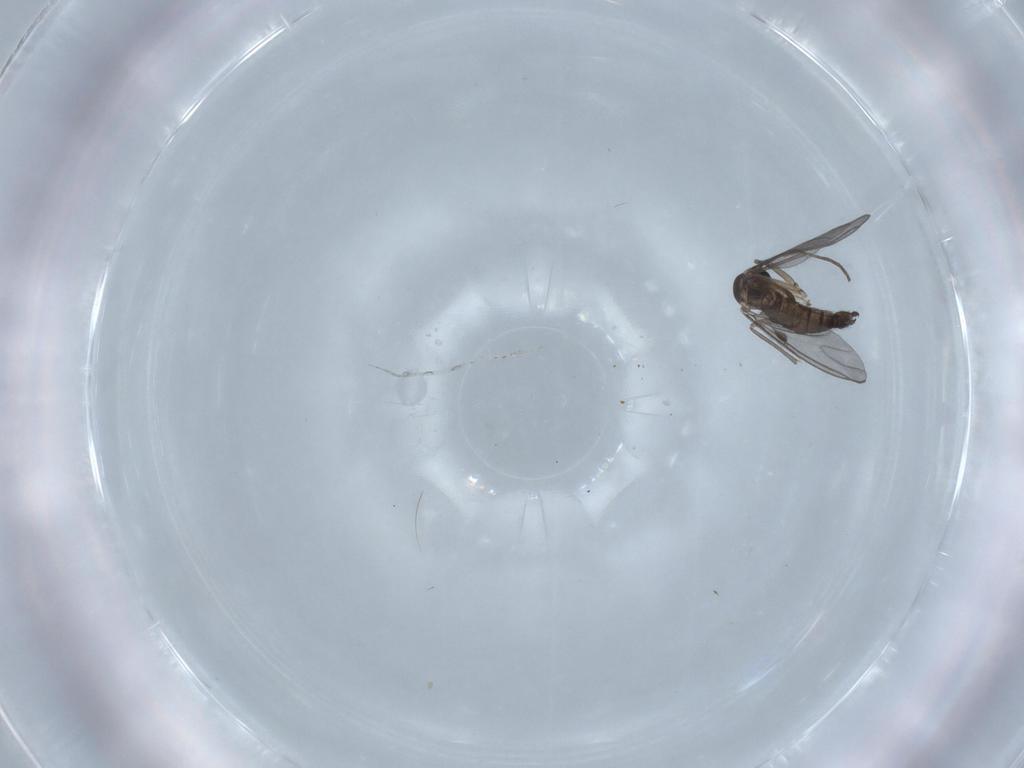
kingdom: Animalia
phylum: Arthropoda
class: Insecta
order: Diptera
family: Sciaridae
